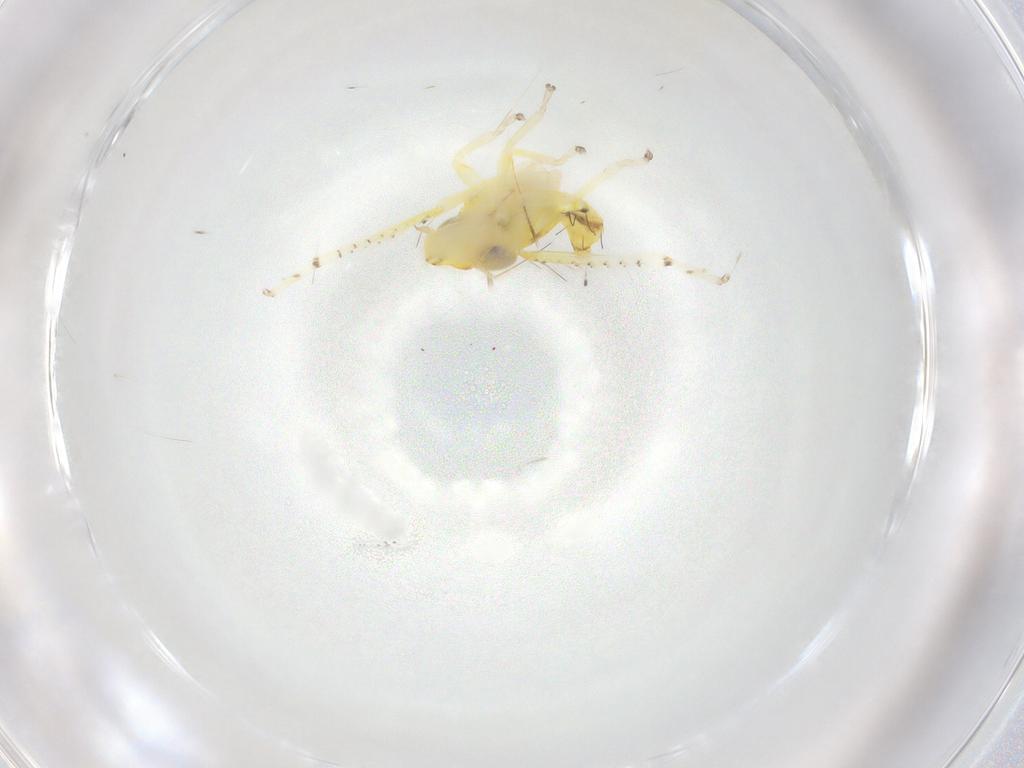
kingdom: Animalia
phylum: Arthropoda
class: Insecta
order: Hemiptera
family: Cicadellidae
